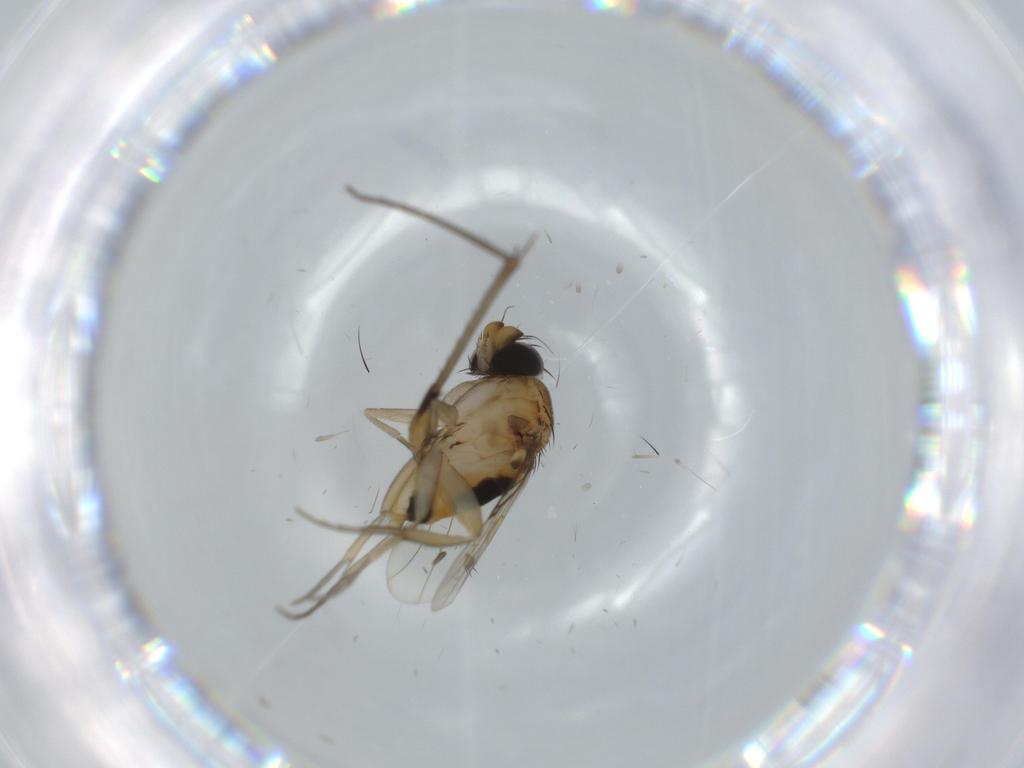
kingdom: Animalia
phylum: Arthropoda
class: Insecta
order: Diptera
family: Phoridae
